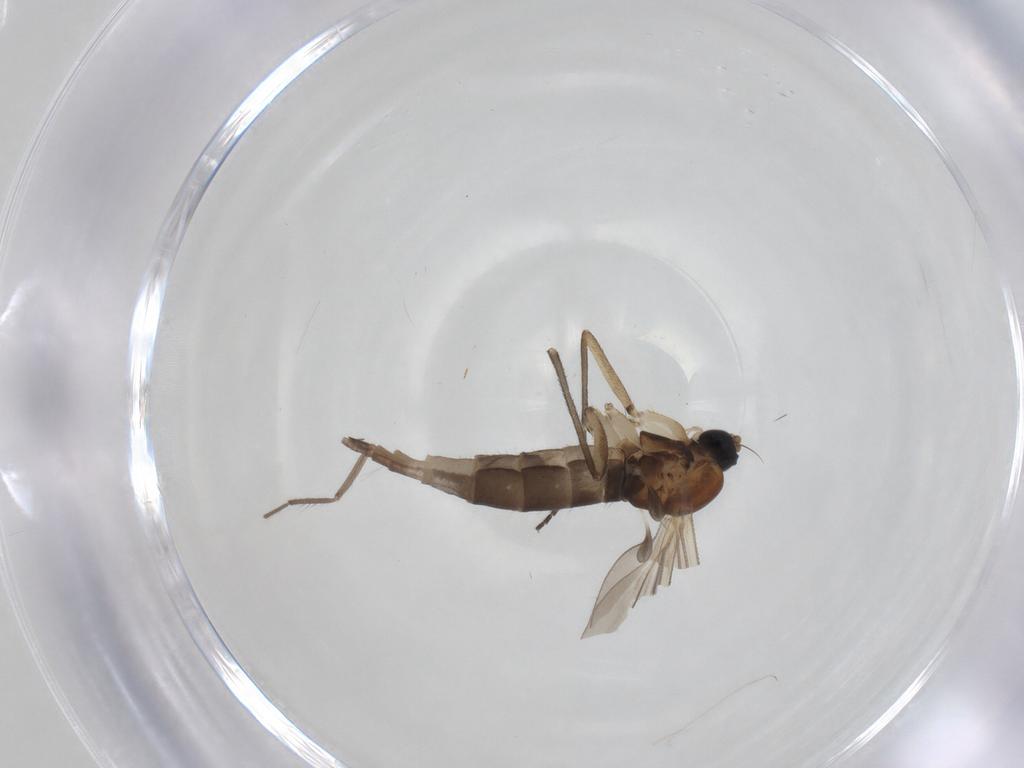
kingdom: Animalia
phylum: Arthropoda
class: Insecta
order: Diptera
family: Sciaridae
